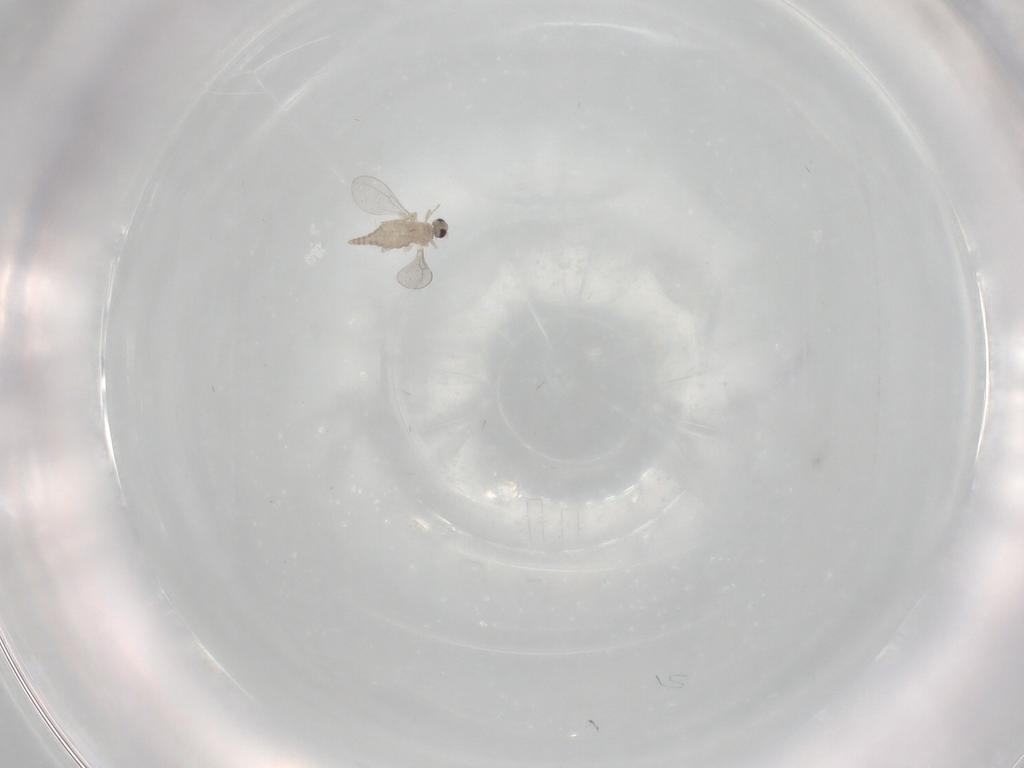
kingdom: Animalia
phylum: Arthropoda
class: Insecta
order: Diptera
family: Cecidomyiidae
